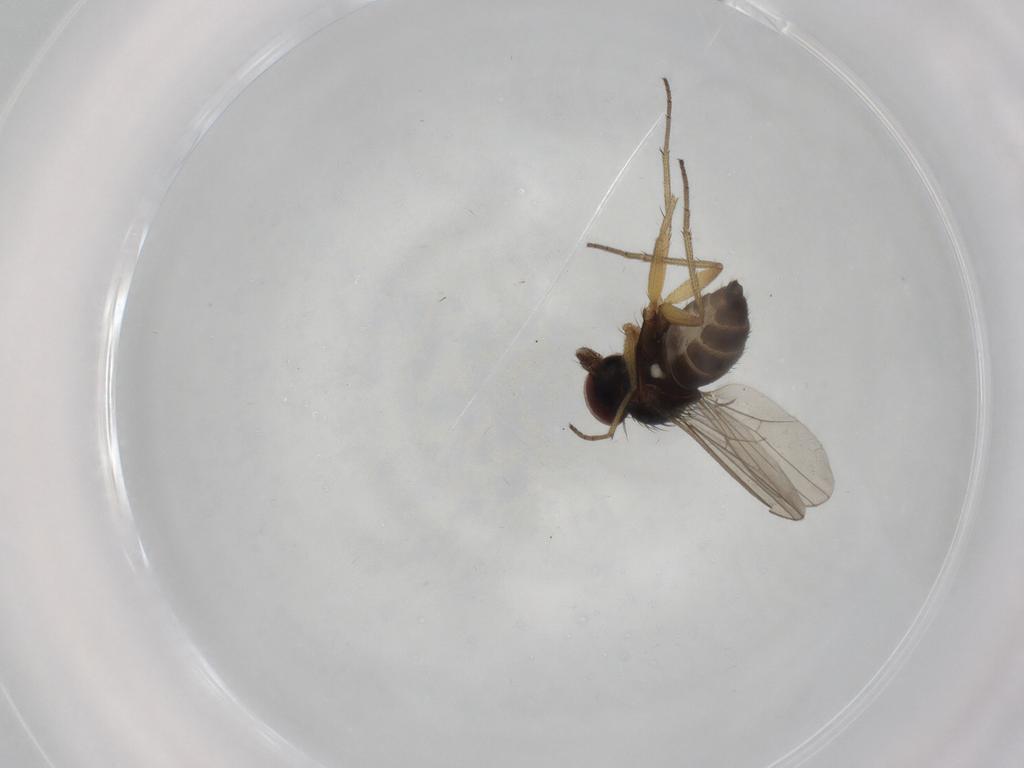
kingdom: Animalia
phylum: Arthropoda
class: Insecta
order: Diptera
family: Dolichopodidae
